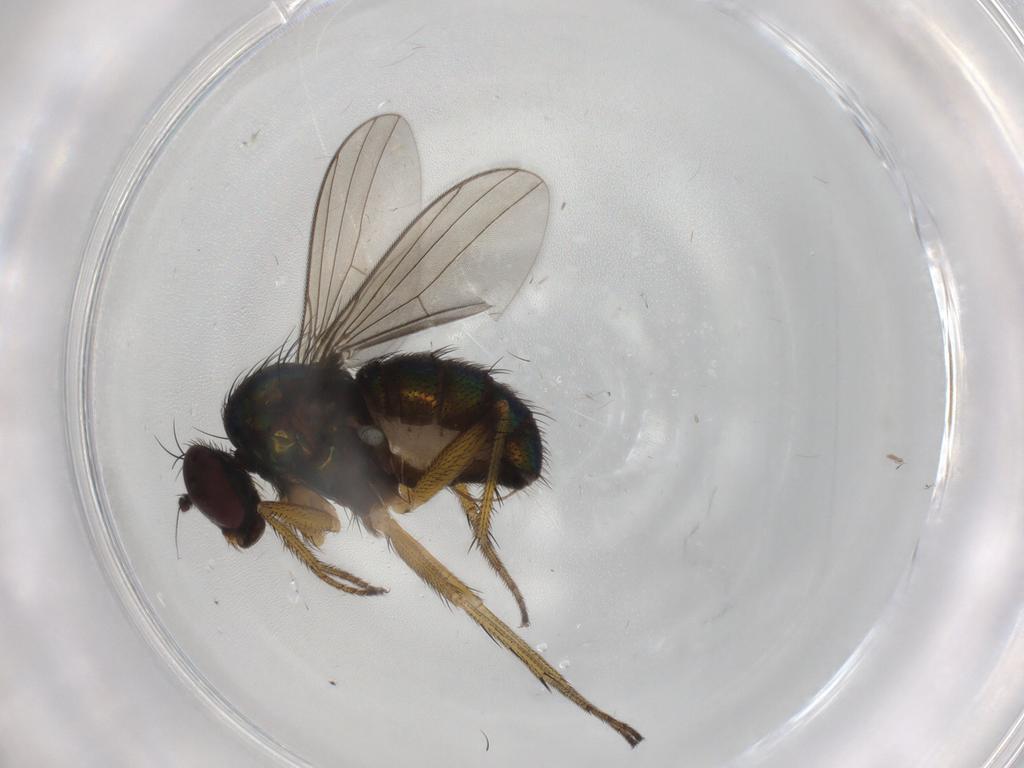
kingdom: Animalia
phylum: Arthropoda
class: Insecta
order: Diptera
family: Dolichopodidae
